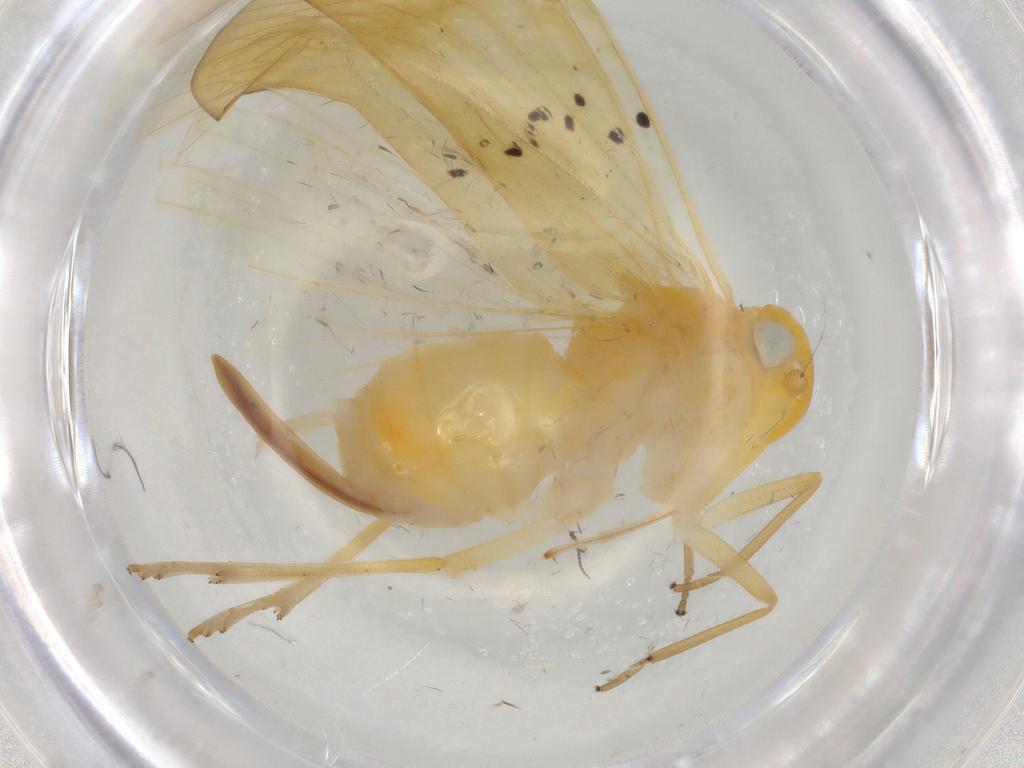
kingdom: Animalia
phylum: Arthropoda
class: Insecta
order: Hemiptera
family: Cicadellidae
